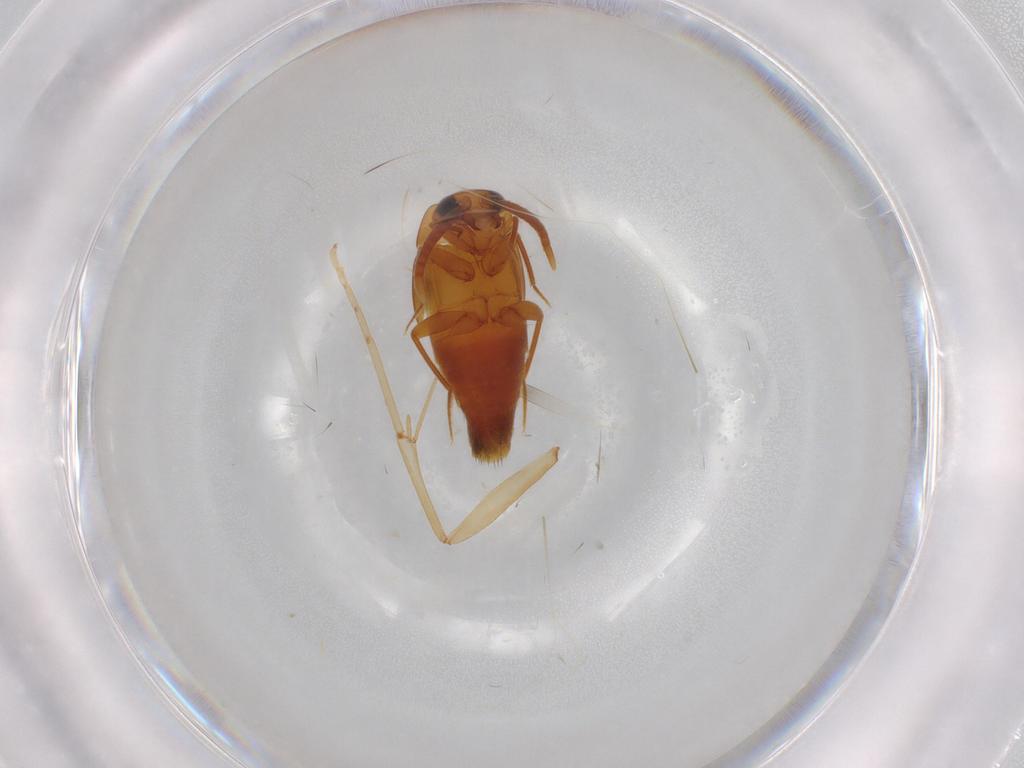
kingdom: Animalia
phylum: Arthropoda
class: Insecta
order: Coleoptera
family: Staphylinidae
